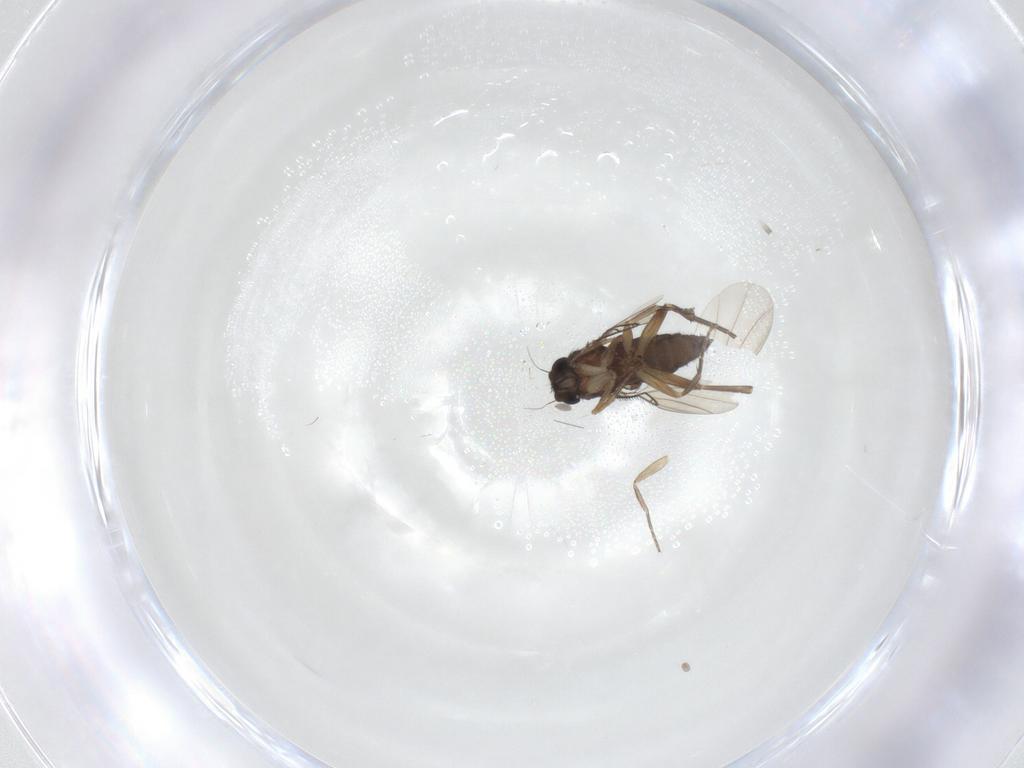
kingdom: Animalia
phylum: Arthropoda
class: Insecta
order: Diptera
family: Phoridae
